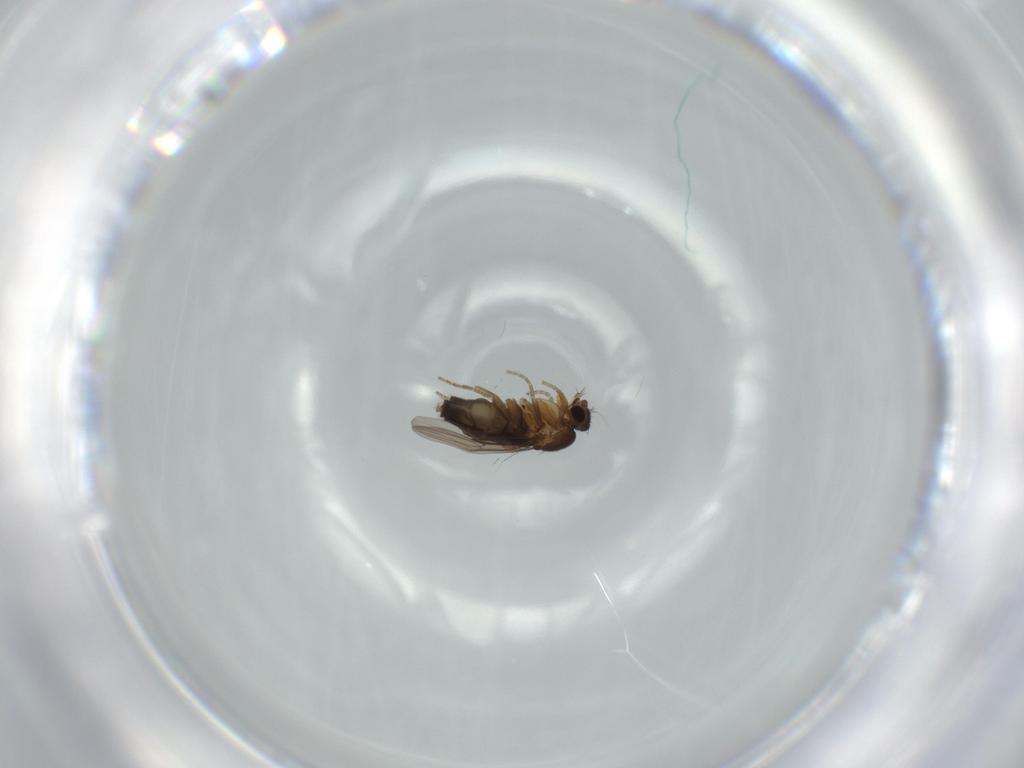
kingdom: Animalia
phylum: Arthropoda
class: Insecta
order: Diptera
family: Phoridae
